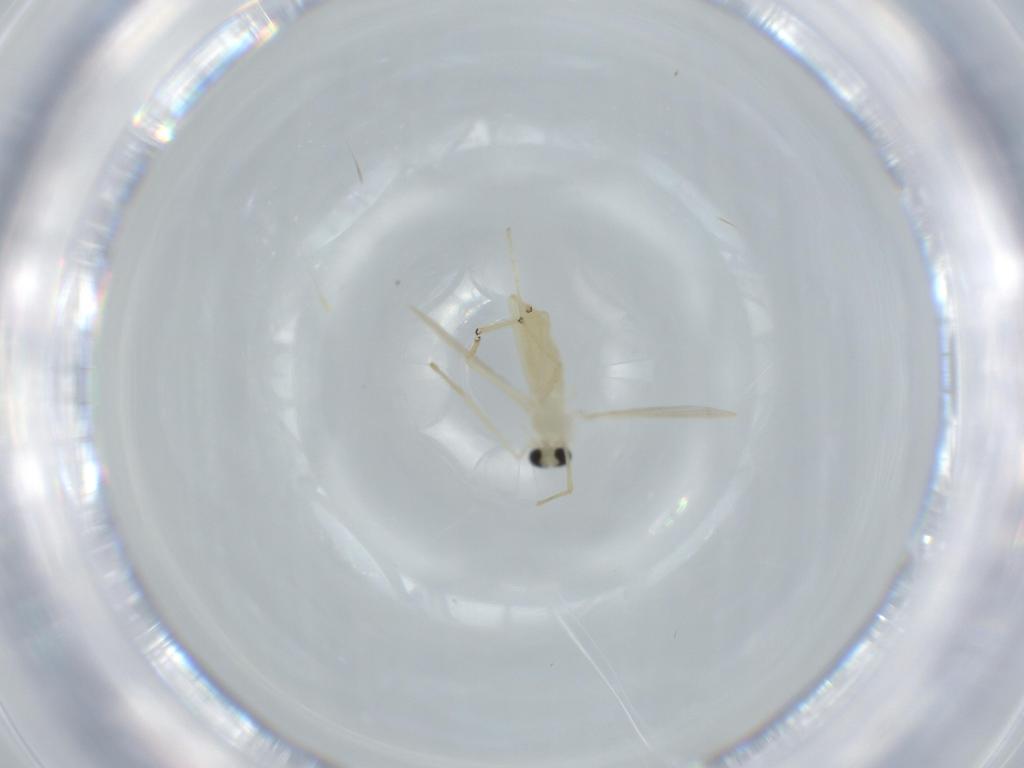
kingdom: Animalia
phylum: Arthropoda
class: Insecta
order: Diptera
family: Chironomidae
